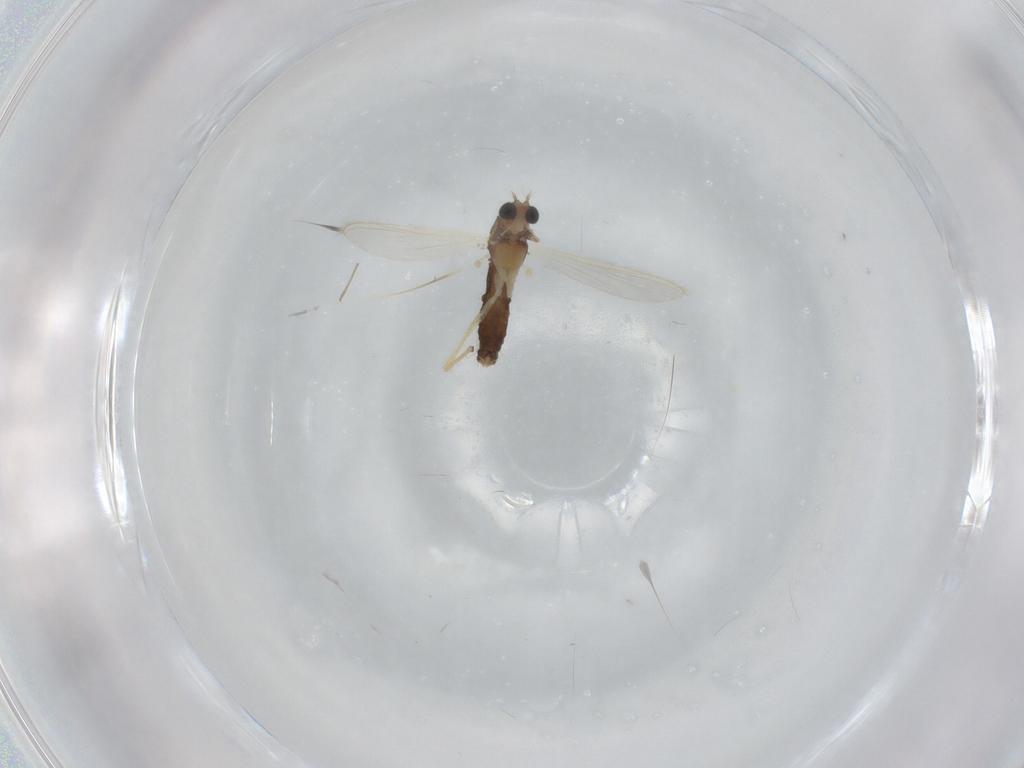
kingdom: Animalia
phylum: Arthropoda
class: Insecta
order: Diptera
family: Chironomidae
